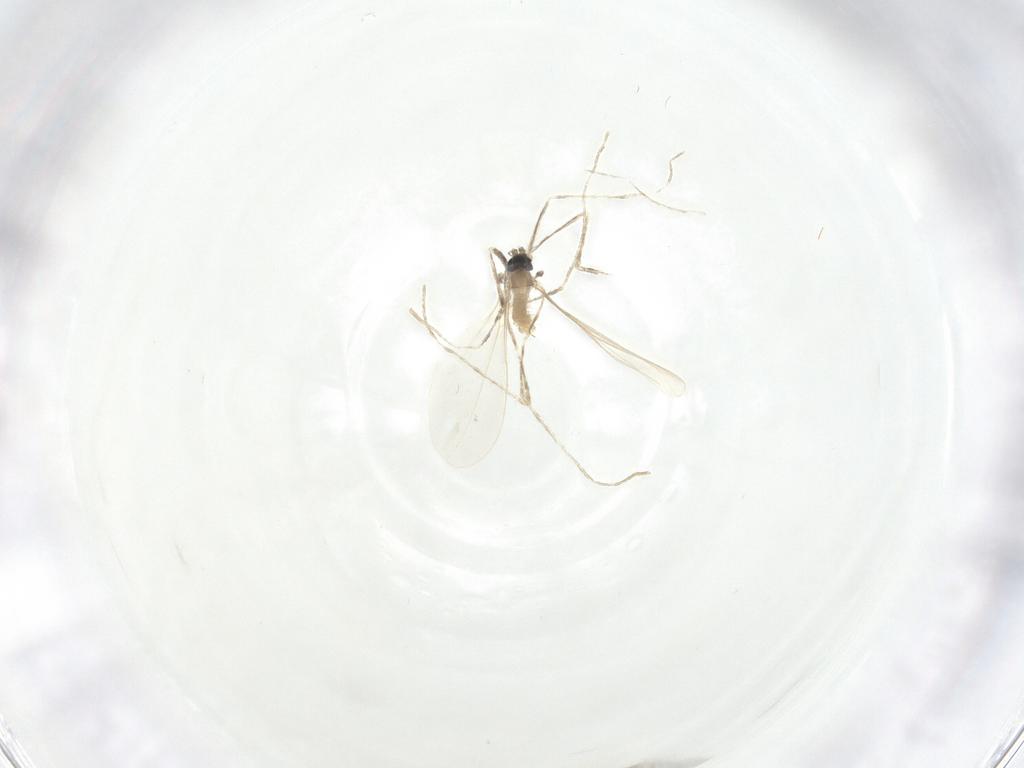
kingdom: Animalia
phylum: Arthropoda
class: Insecta
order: Diptera
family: Cecidomyiidae
